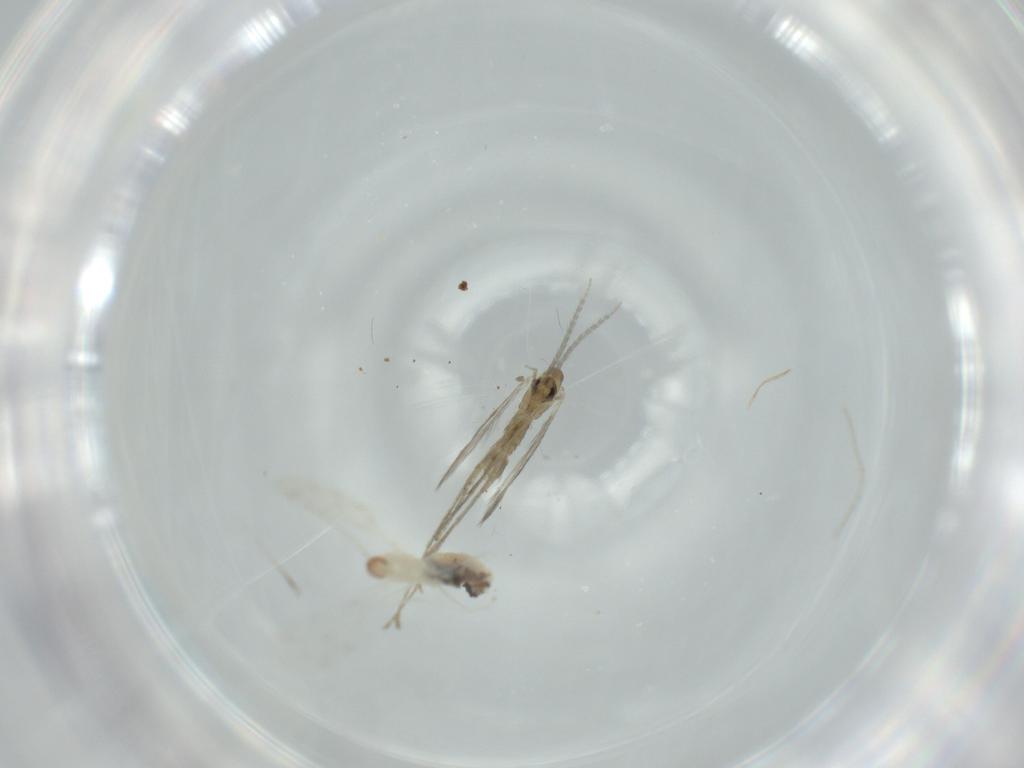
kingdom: Animalia
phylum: Arthropoda
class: Insecta
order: Diptera
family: Cecidomyiidae
